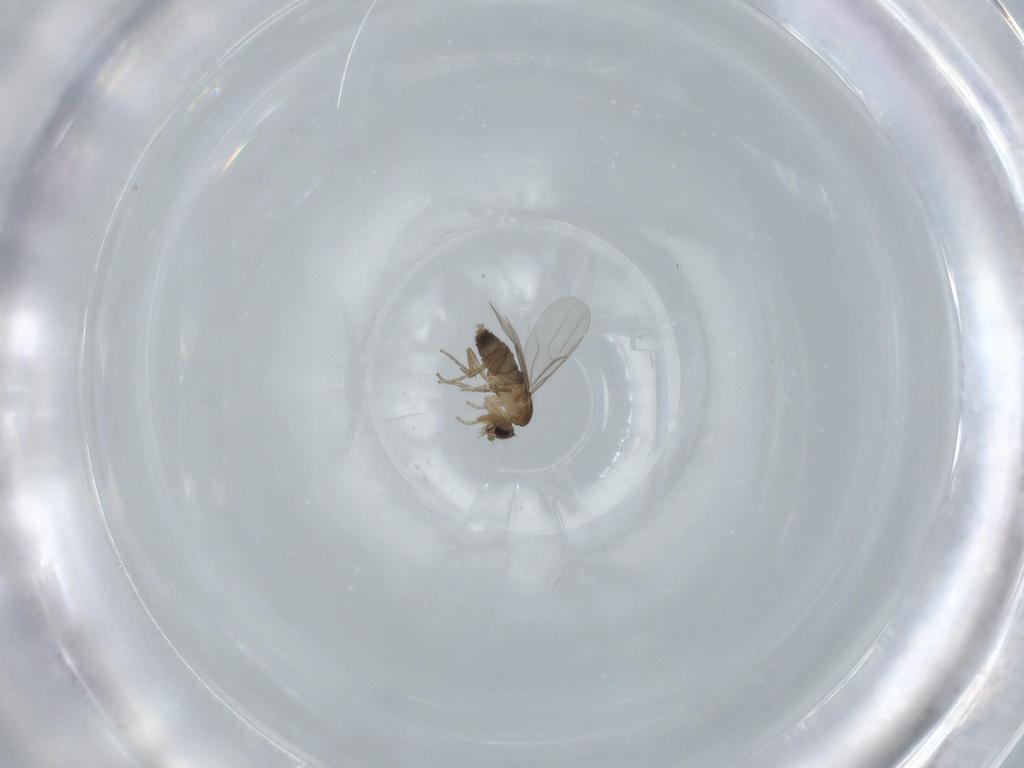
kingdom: Animalia
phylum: Arthropoda
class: Insecta
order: Diptera
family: Phoridae
